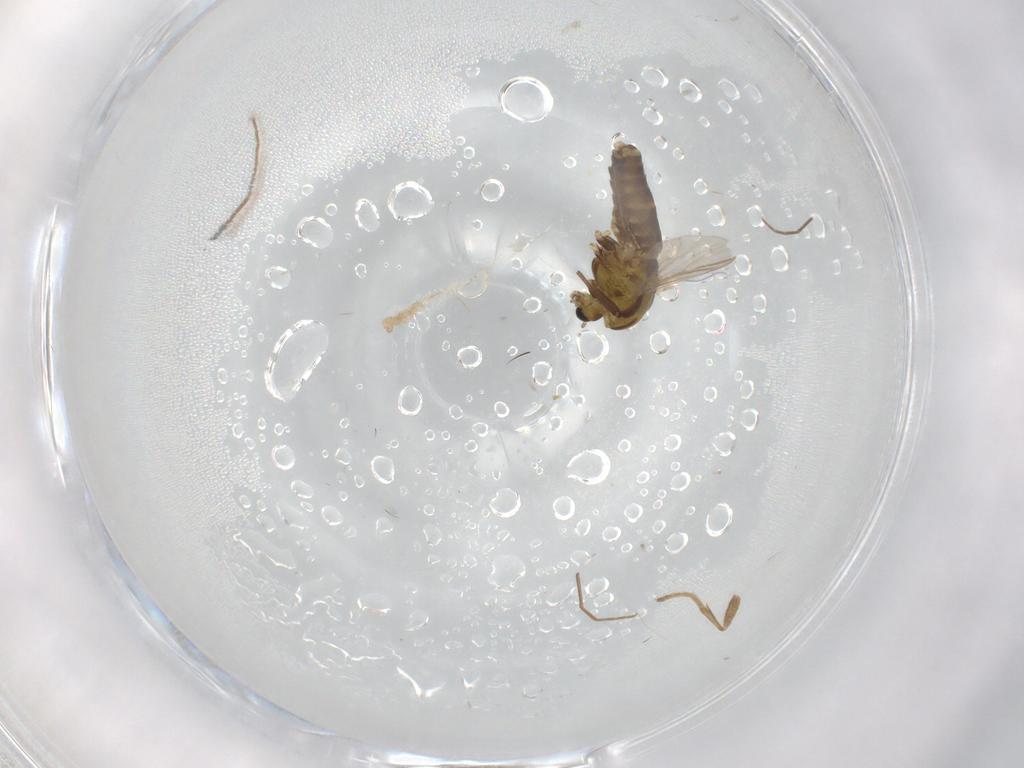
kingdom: Animalia
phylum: Arthropoda
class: Insecta
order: Diptera
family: Chironomidae
